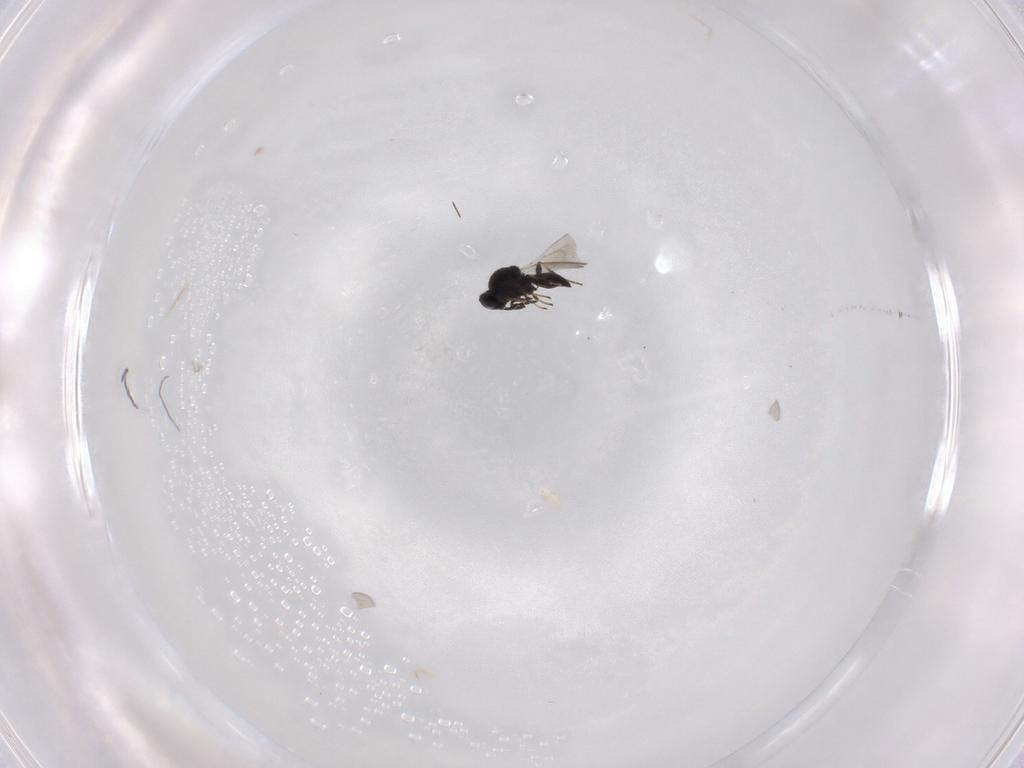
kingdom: Animalia
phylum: Arthropoda
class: Insecta
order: Hymenoptera
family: Platygastridae
